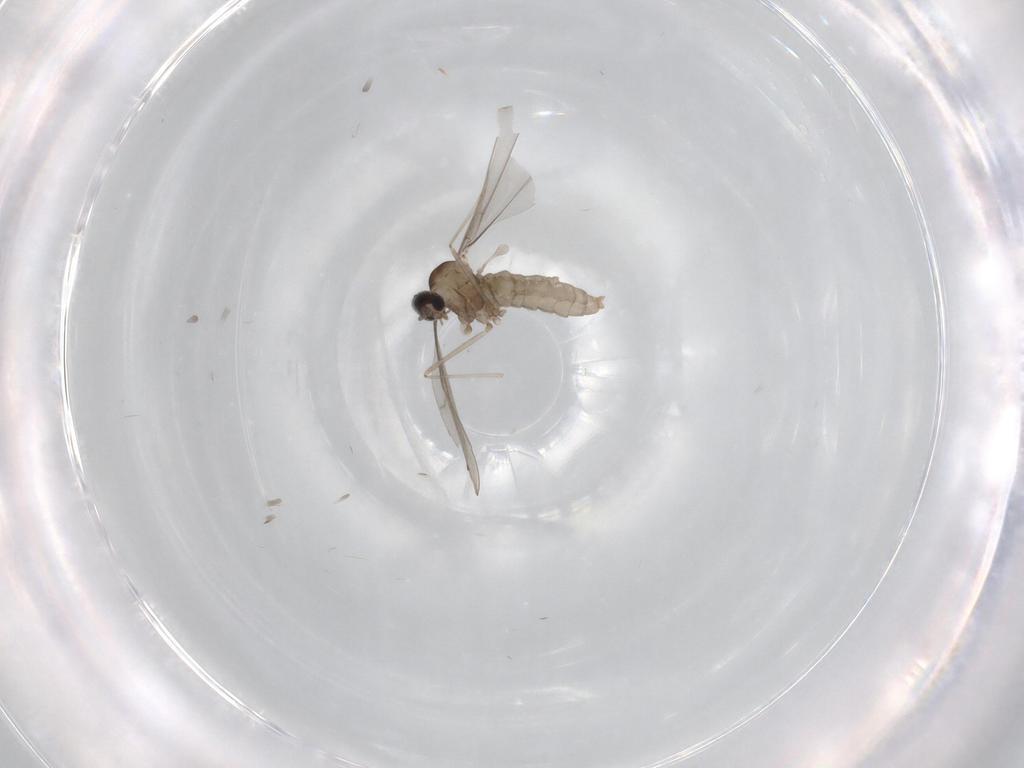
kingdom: Animalia
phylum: Arthropoda
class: Insecta
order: Diptera
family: Cecidomyiidae
